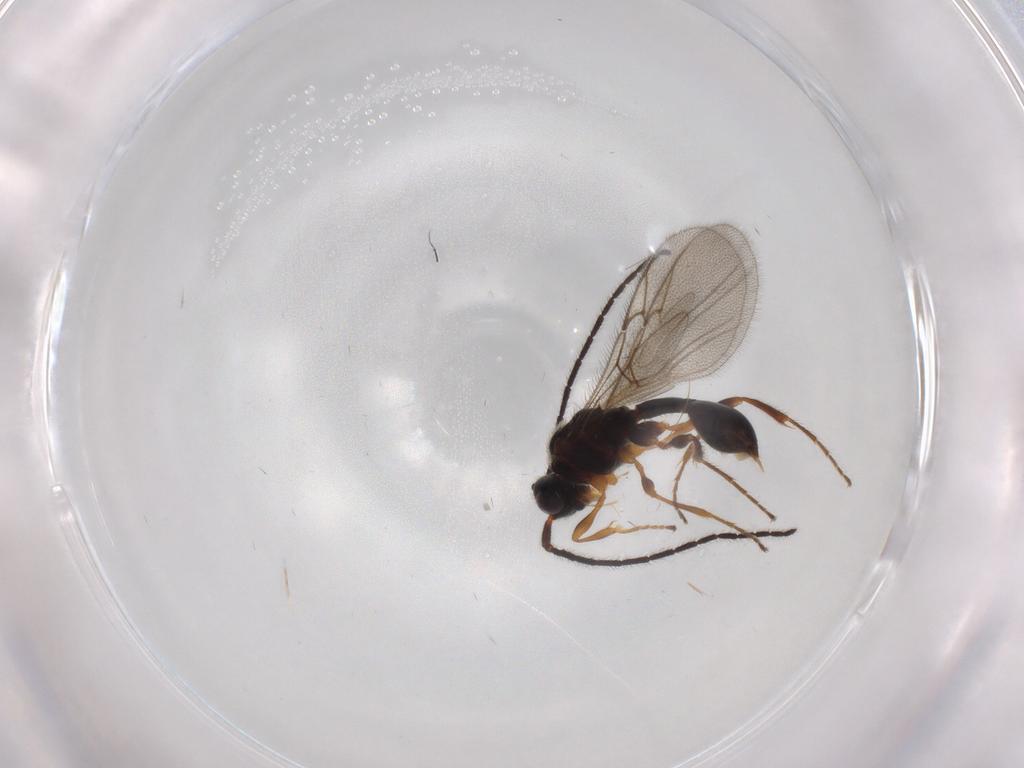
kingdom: Animalia
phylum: Arthropoda
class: Insecta
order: Hymenoptera
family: Diapriidae
